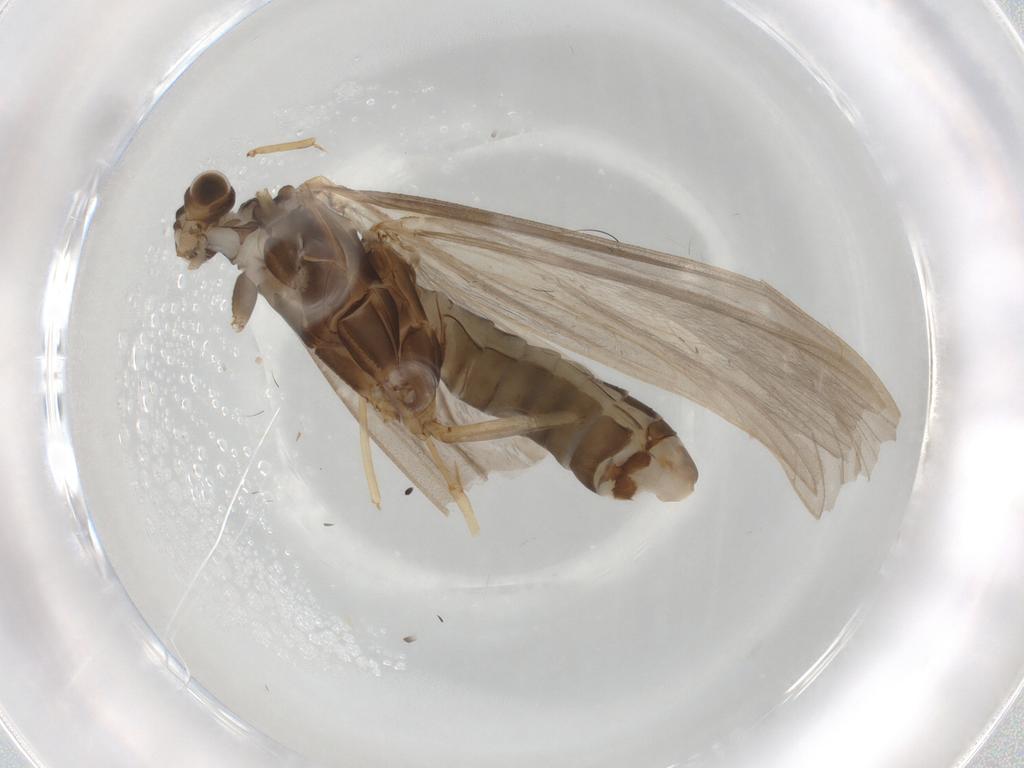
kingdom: Animalia
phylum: Arthropoda
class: Insecta
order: Trichoptera
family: Lepidostomatidae
